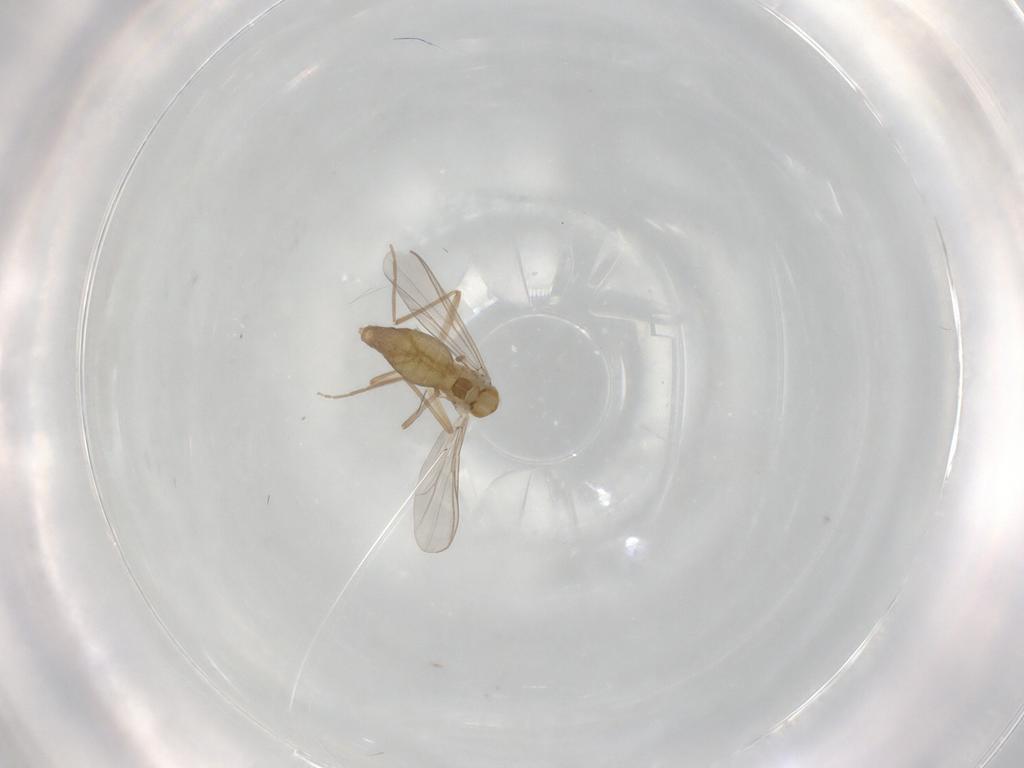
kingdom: Animalia
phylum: Arthropoda
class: Insecta
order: Diptera
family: Chironomidae
